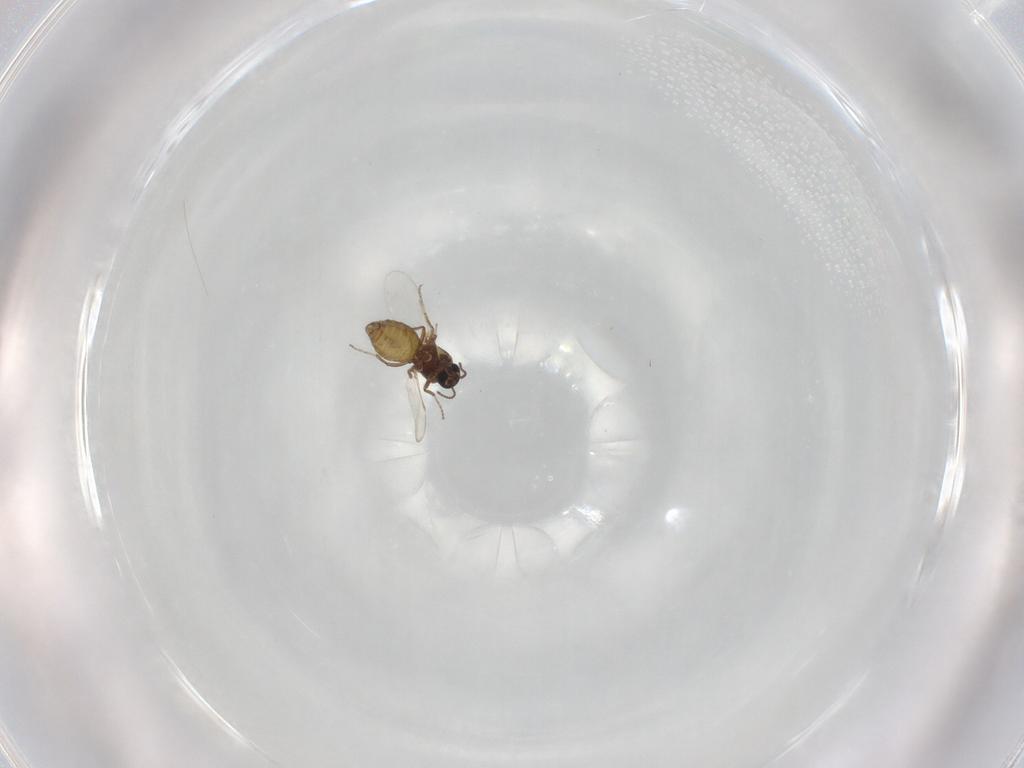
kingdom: Animalia
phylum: Arthropoda
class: Insecta
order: Diptera
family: Ceratopogonidae
